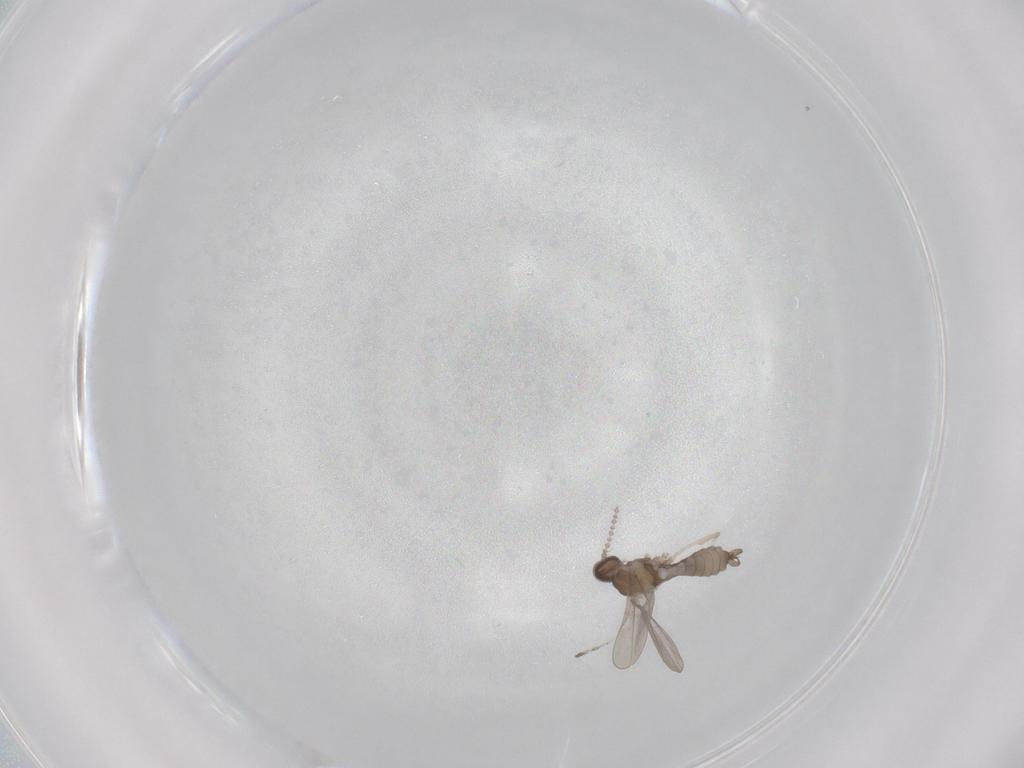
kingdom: Animalia
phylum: Arthropoda
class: Insecta
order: Diptera
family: Cecidomyiidae
